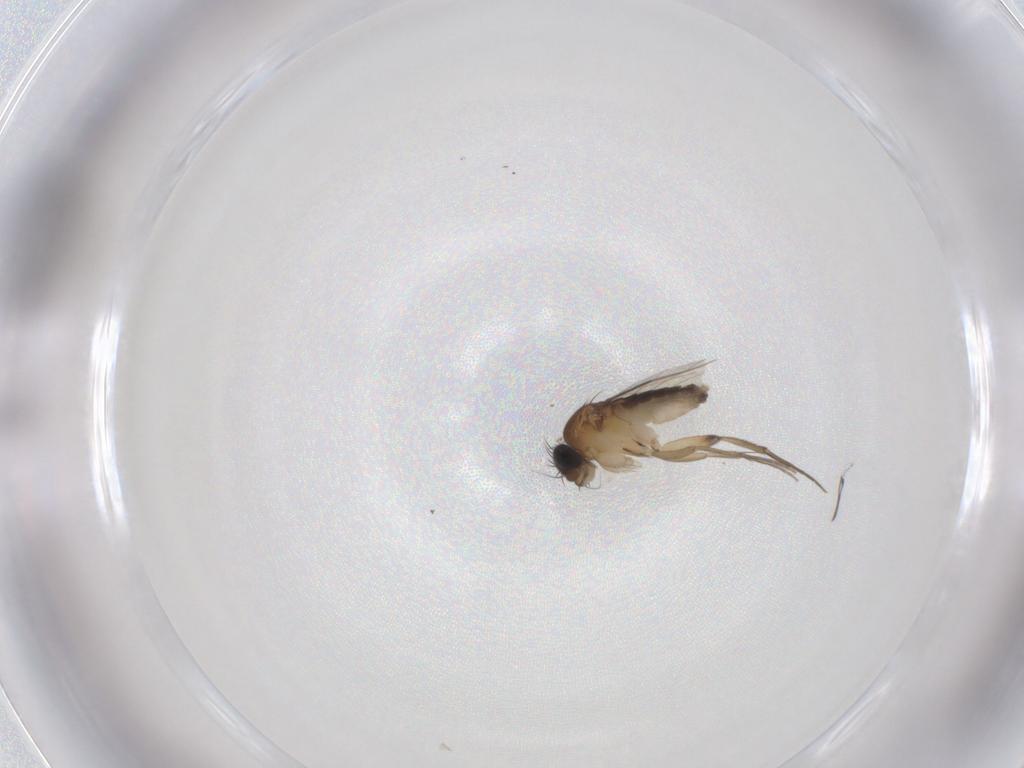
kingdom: Animalia
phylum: Arthropoda
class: Insecta
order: Diptera
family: Phoridae
